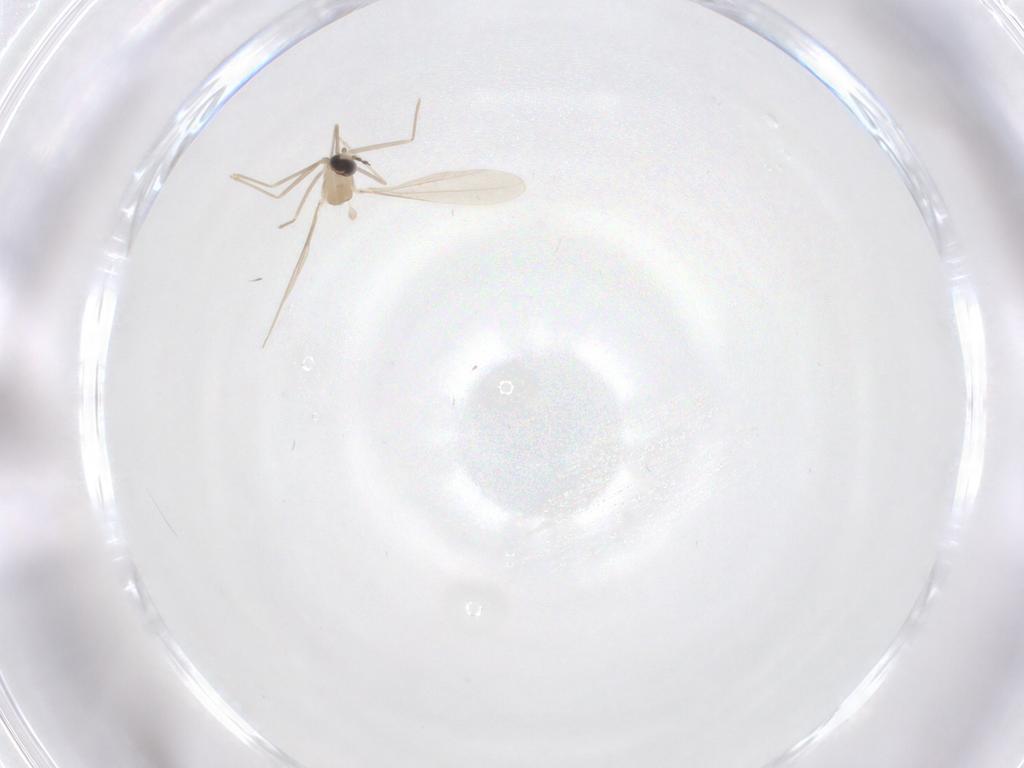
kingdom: Animalia
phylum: Arthropoda
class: Insecta
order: Diptera
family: Cecidomyiidae
